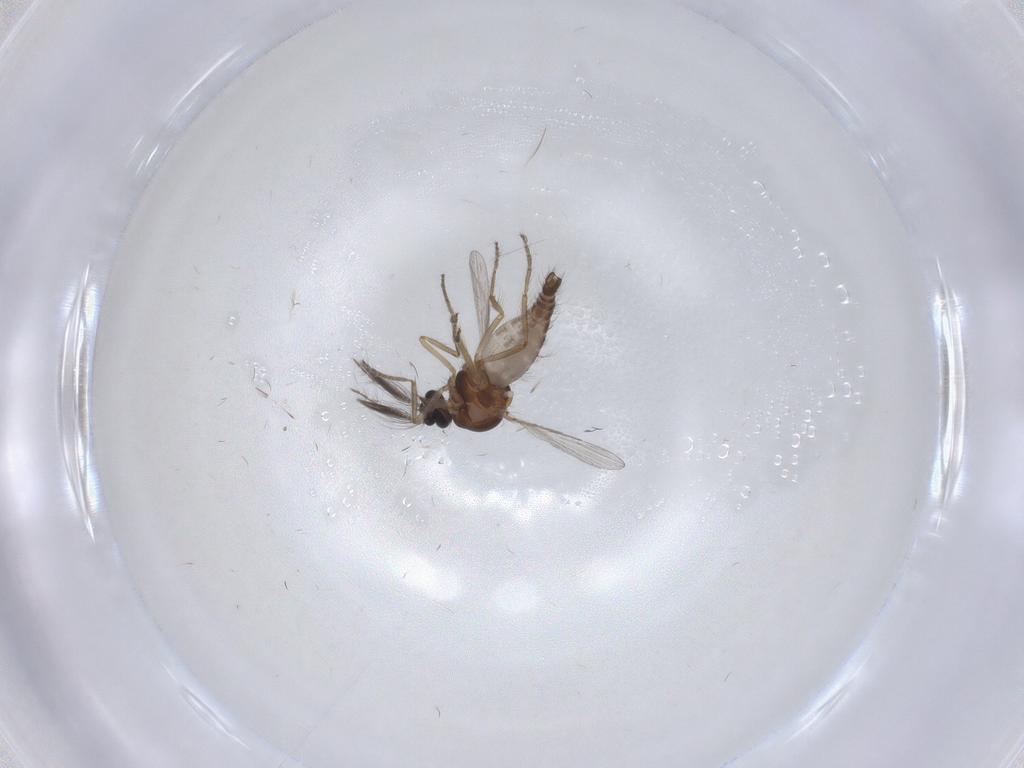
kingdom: Animalia
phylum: Arthropoda
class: Insecta
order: Diptera
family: Ceratopogonidae
